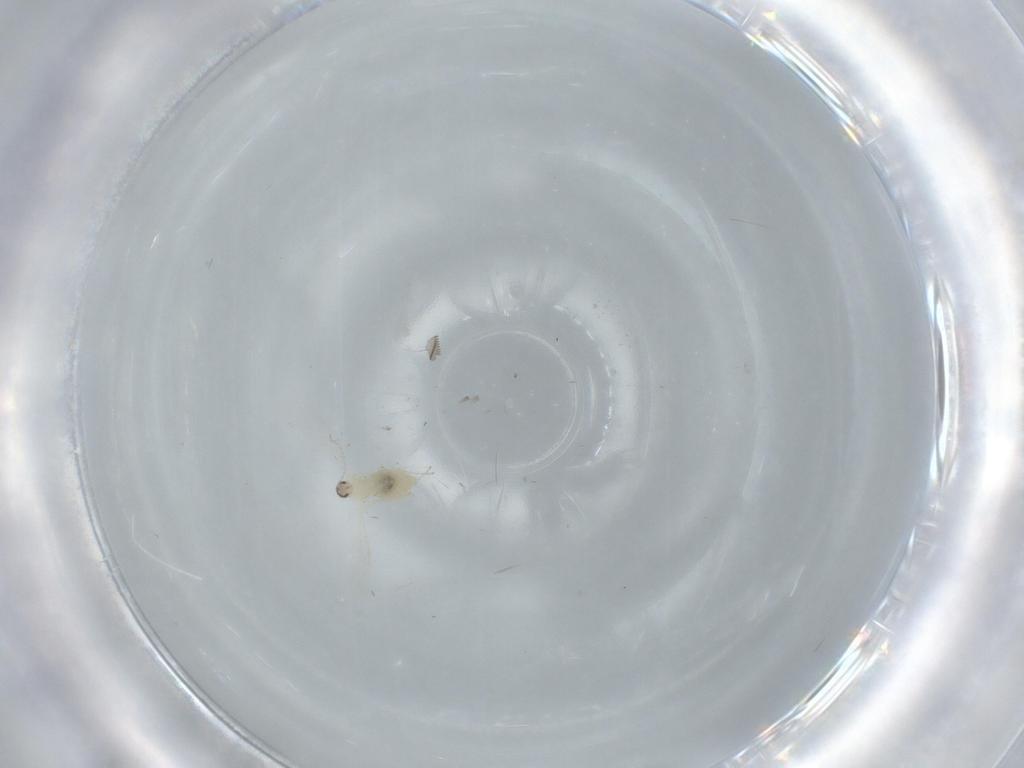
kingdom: Animalia
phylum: Arthropoda
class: Insecta
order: Diptera
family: Cecidomyiidae
